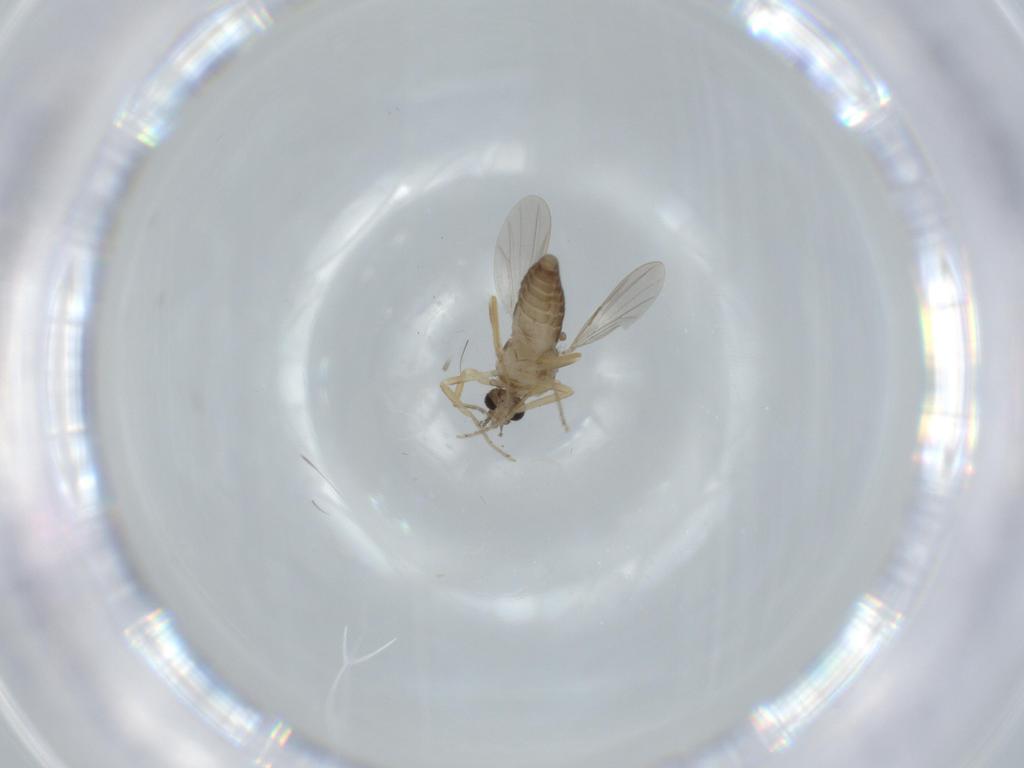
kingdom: Animalia
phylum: Arthropoda
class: Insecta
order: Diptera
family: Ceratopogonidae
